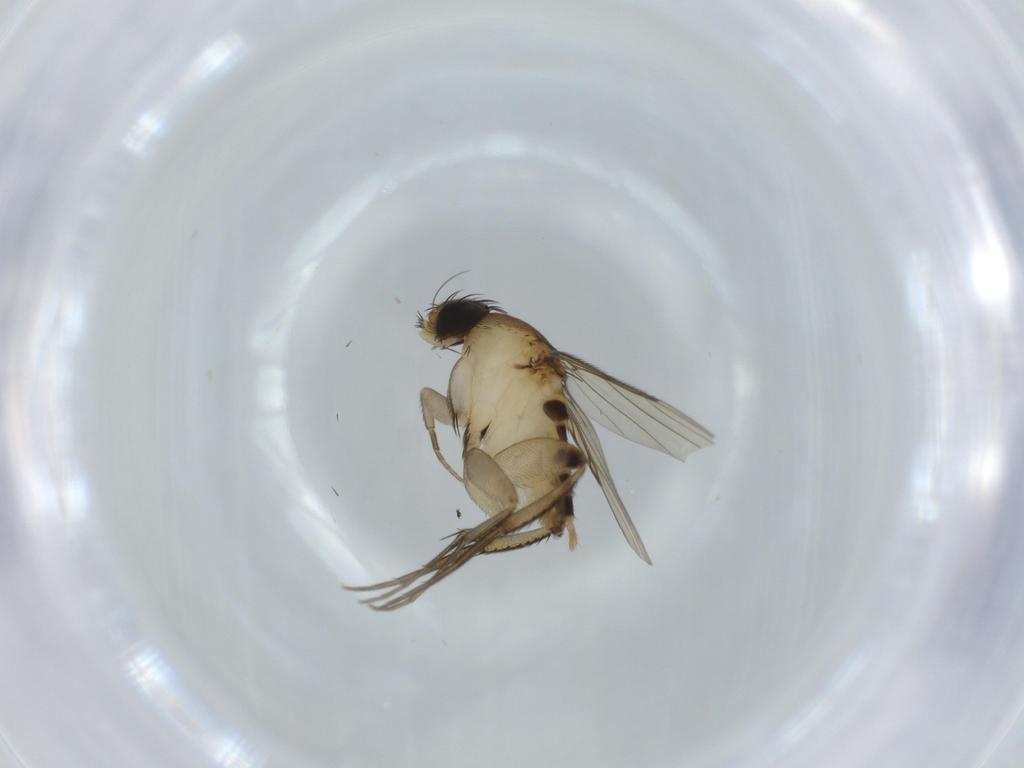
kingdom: Animalia
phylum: Arthropoda
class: Insecta
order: Diptera
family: Phoridae
